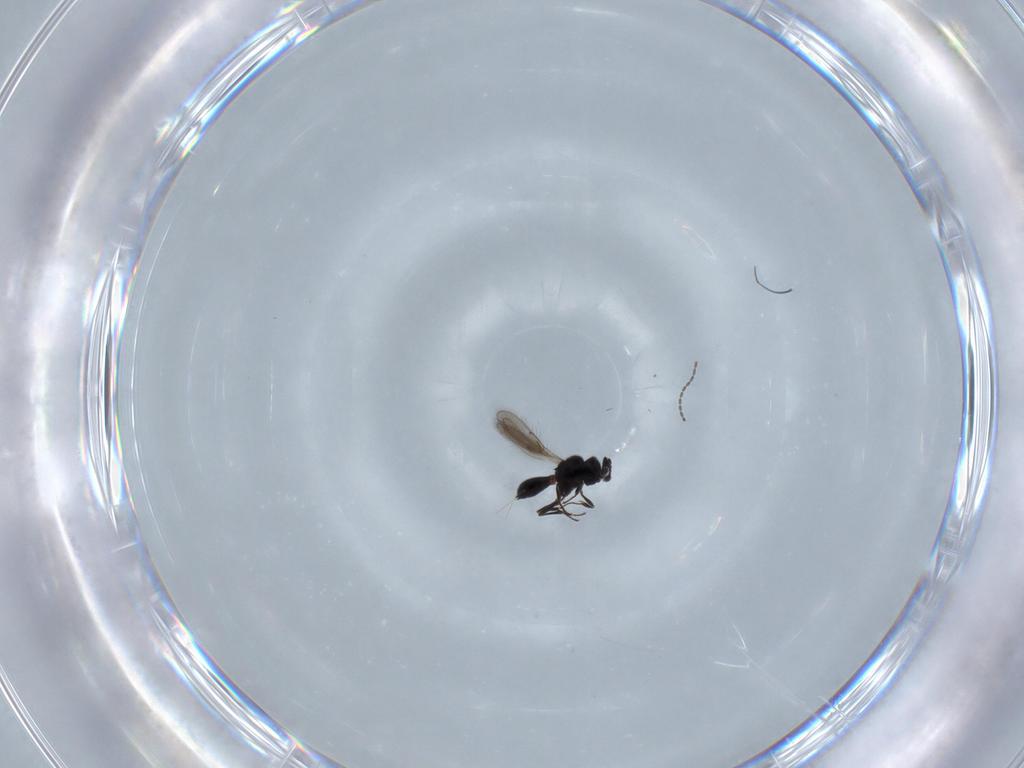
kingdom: Animalia
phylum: Arthropoda
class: Insecta
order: Hymenoptera
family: Scelionidae
